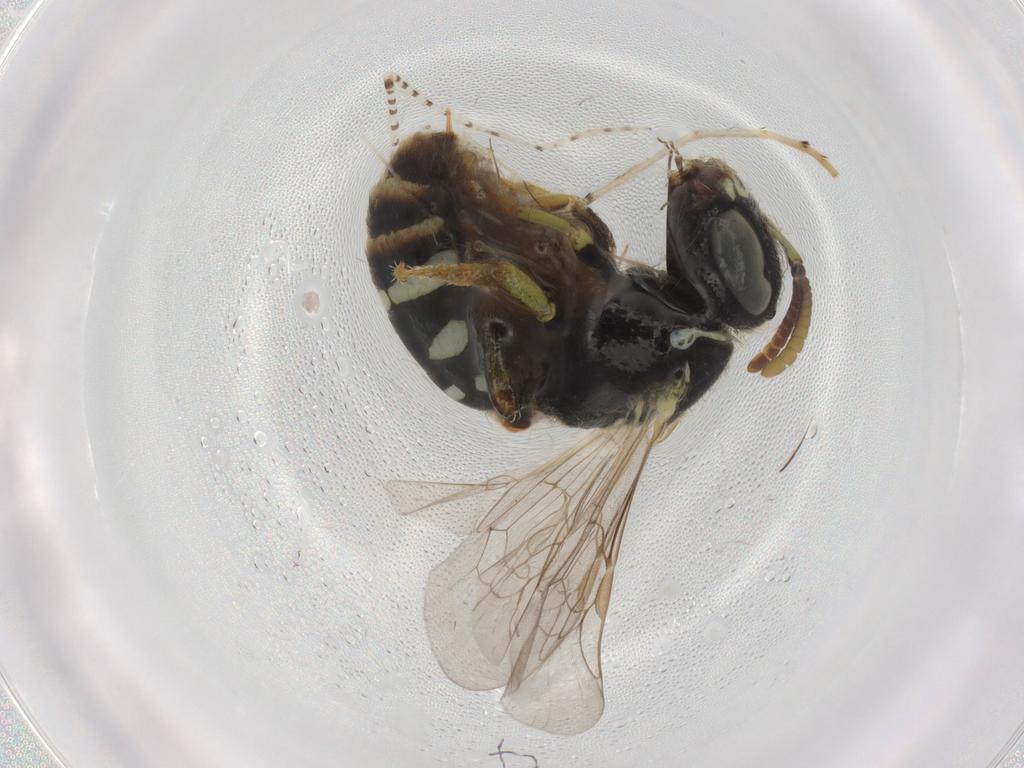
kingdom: Animalia
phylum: Arthropoda
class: Insecta
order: Hymenoptera
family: Scelionidae
